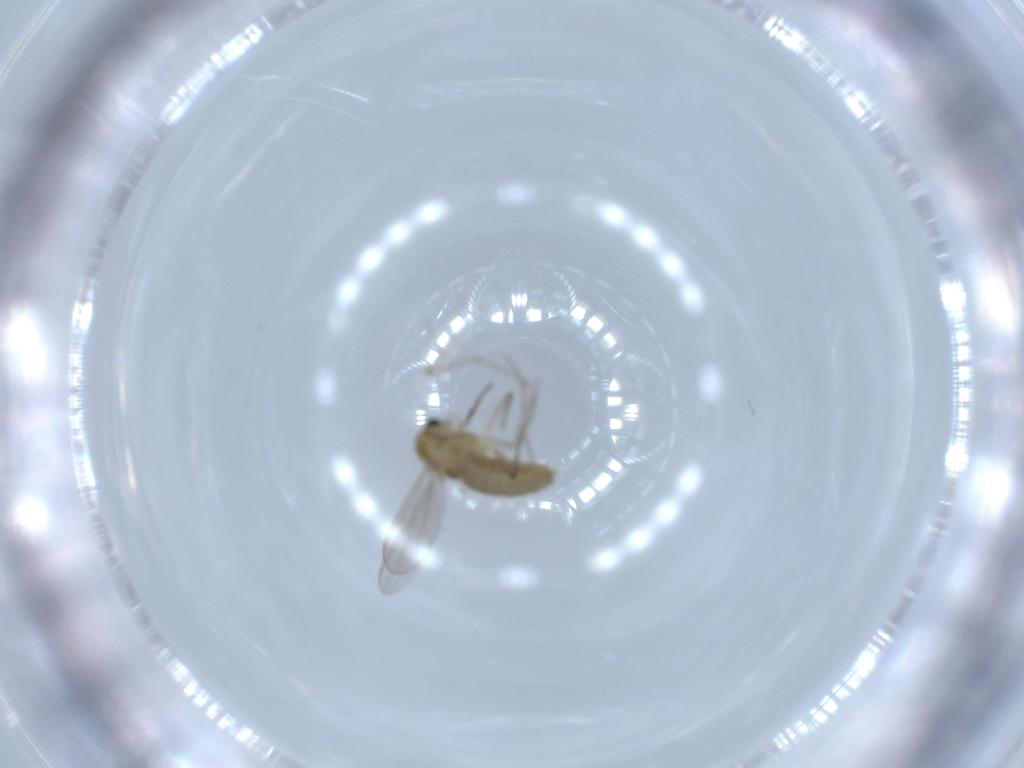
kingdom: Animalia
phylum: Arthropoda
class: Insecta
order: Diptera
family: Chironomidae
